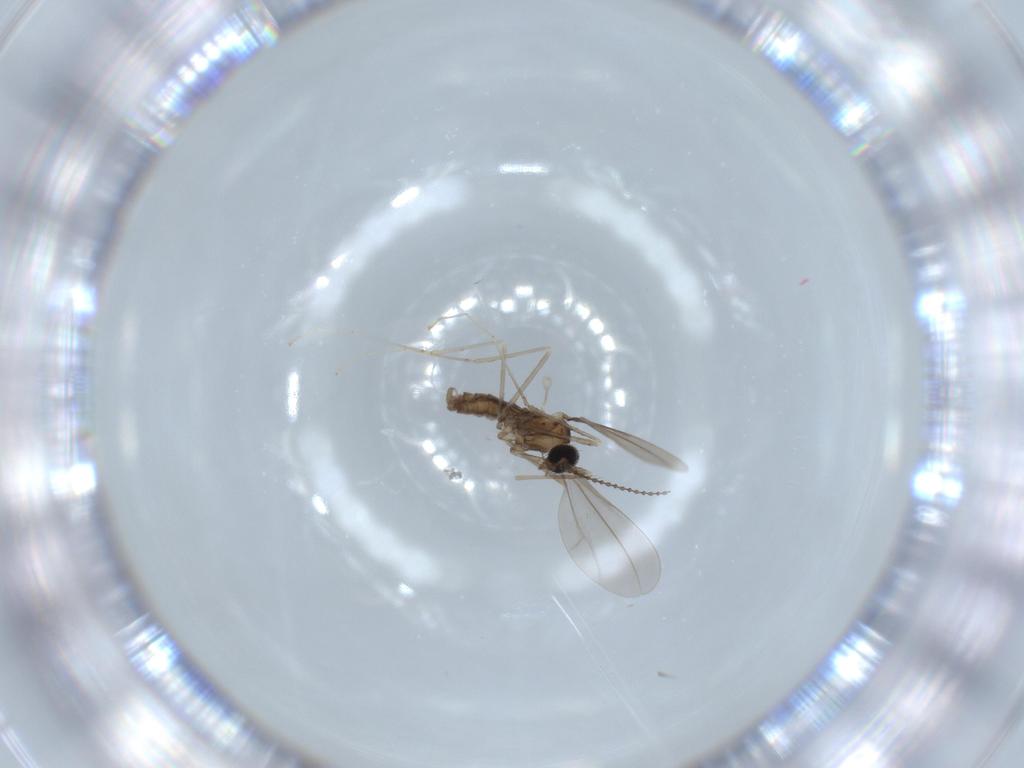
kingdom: Animalia
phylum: Arthropoda
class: Insecta
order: Diptera
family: Cecidomyiidae
